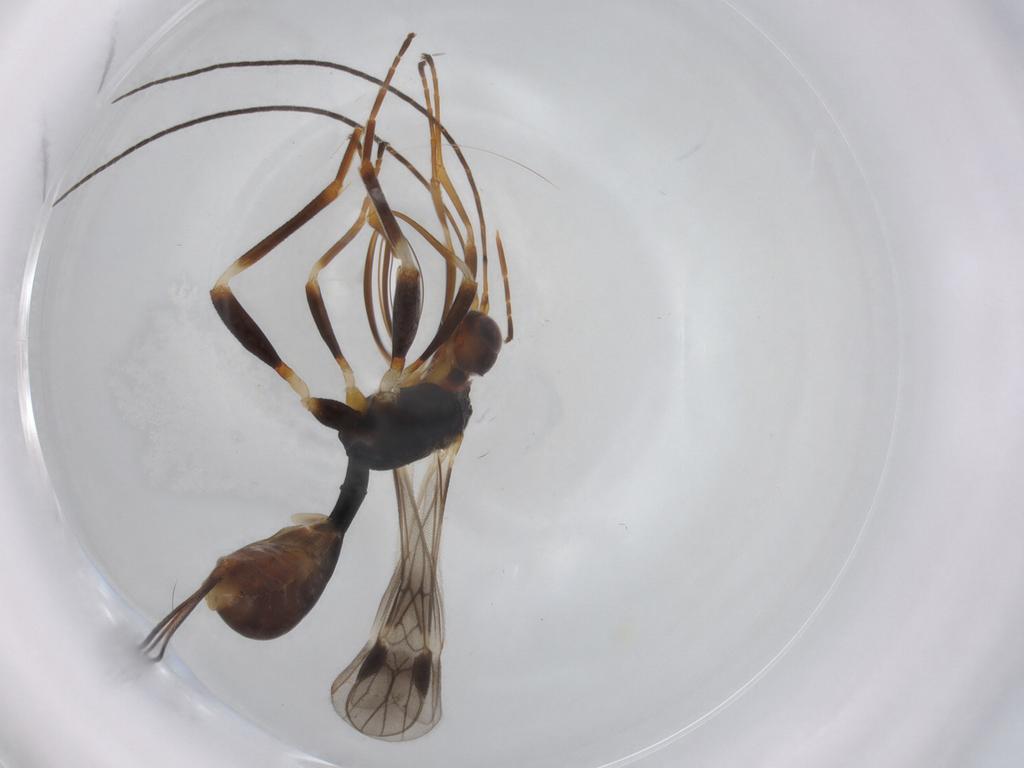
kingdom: Animalia
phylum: Arthropoda
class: Insecta
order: Hymenoptera
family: Braconidae
